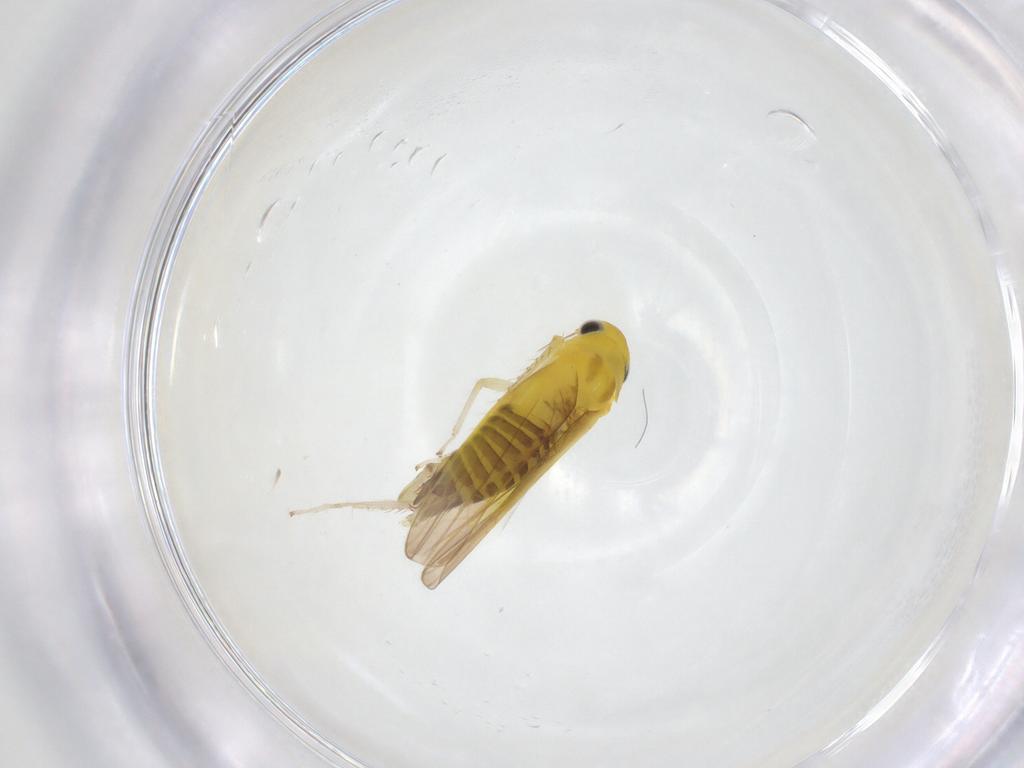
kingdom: Animalia
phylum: Arthropoda
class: Insecta
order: Hemiptera
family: Cicadellidae
